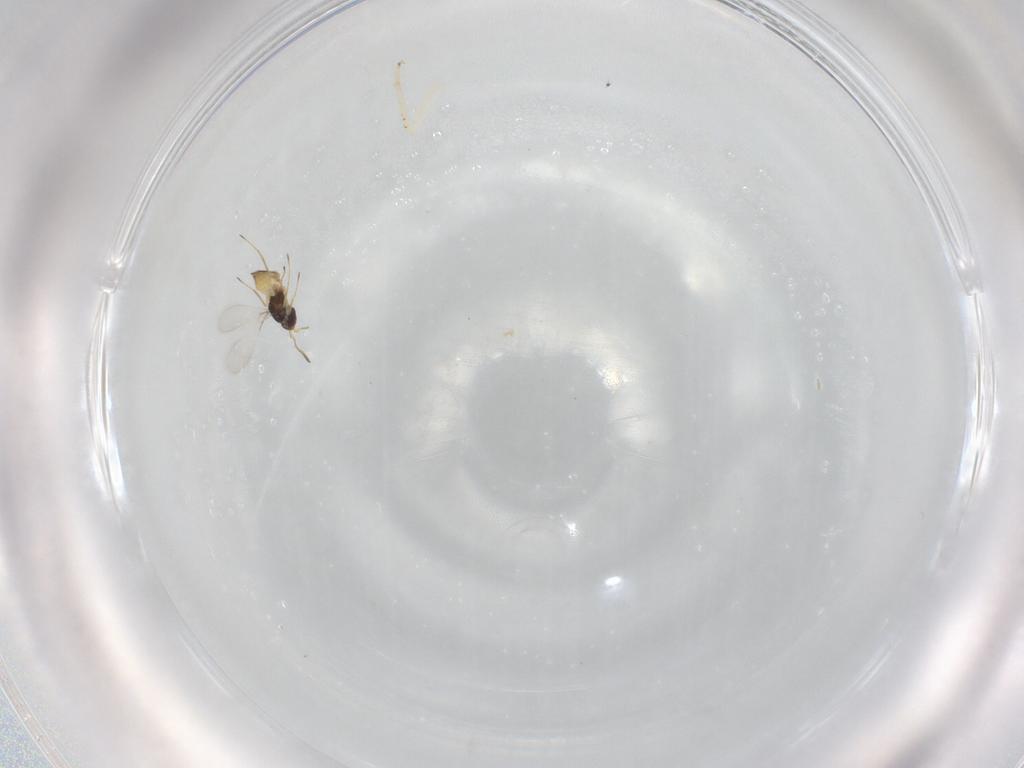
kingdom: Animalia
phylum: Arthropoda
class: Insecta
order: Hymenoptera
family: Mymaridae
